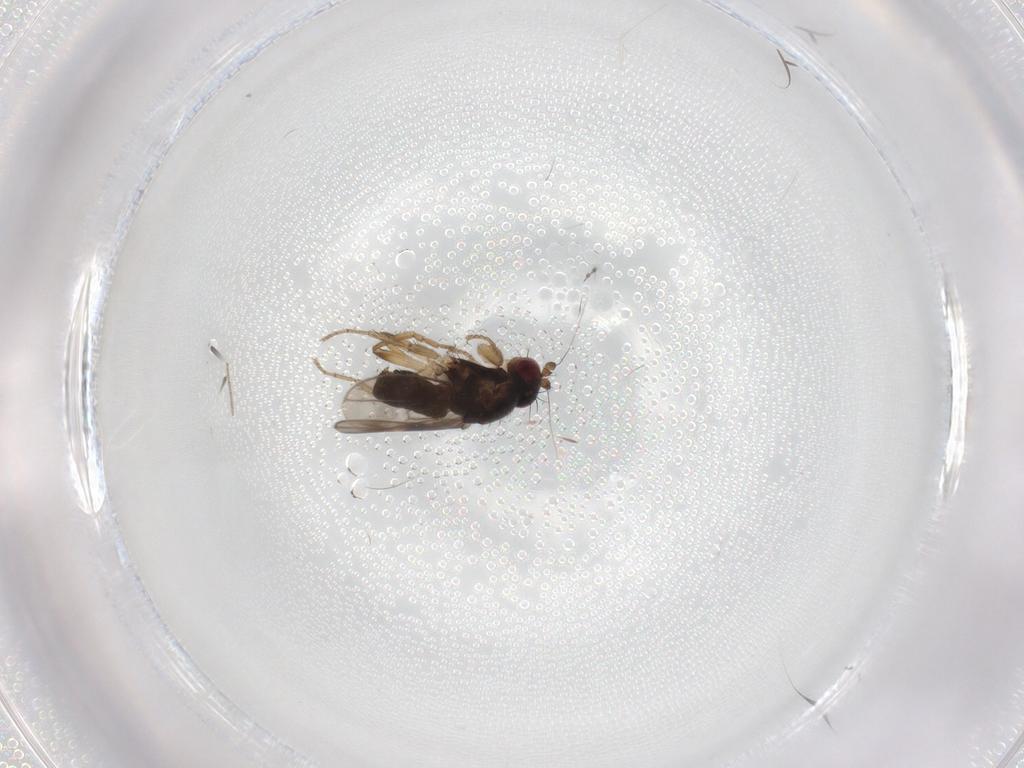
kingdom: Animalia
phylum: Arthropoda
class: Insecta
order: Diptera
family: Sphaeroceridae
